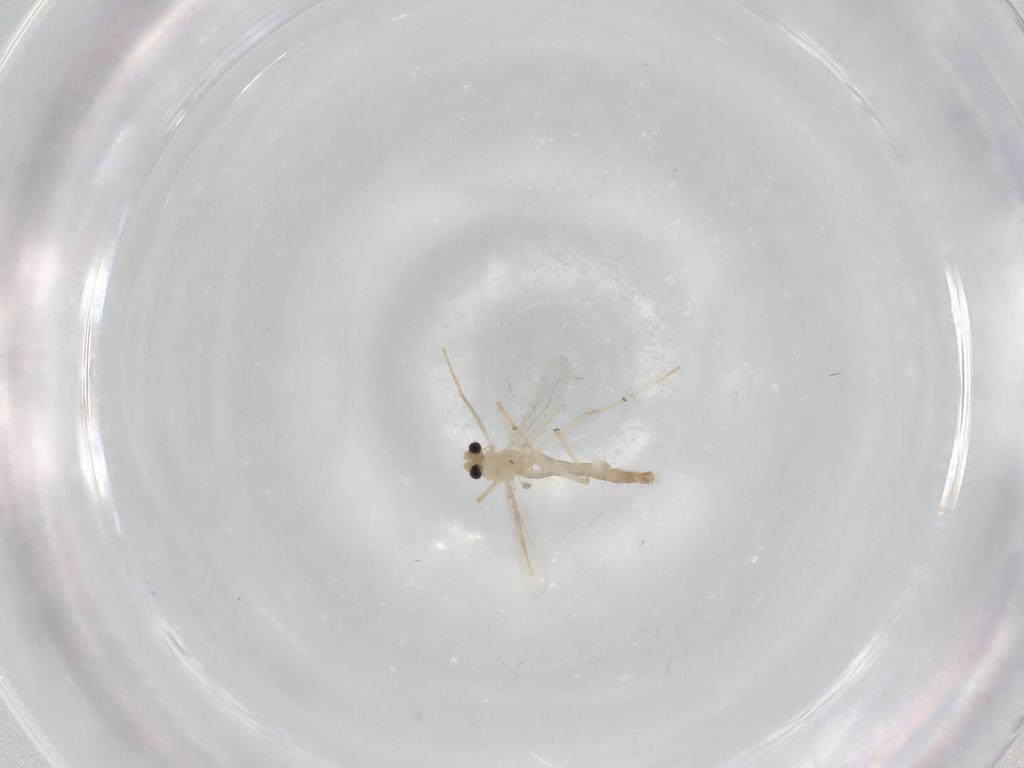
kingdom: Animalia
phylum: Arthropoda
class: Insecta
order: Diptera
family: Chironomidae
